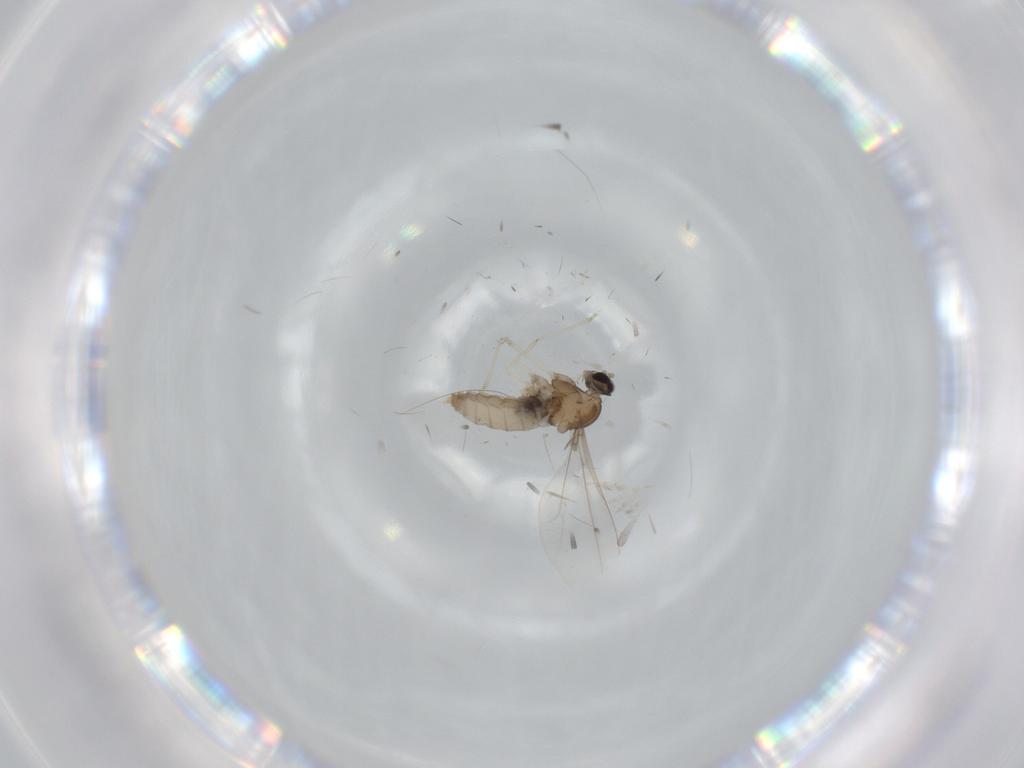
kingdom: Animalia
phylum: Arthropoda
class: Insecta
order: Diptera
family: Cecidomyiidae
